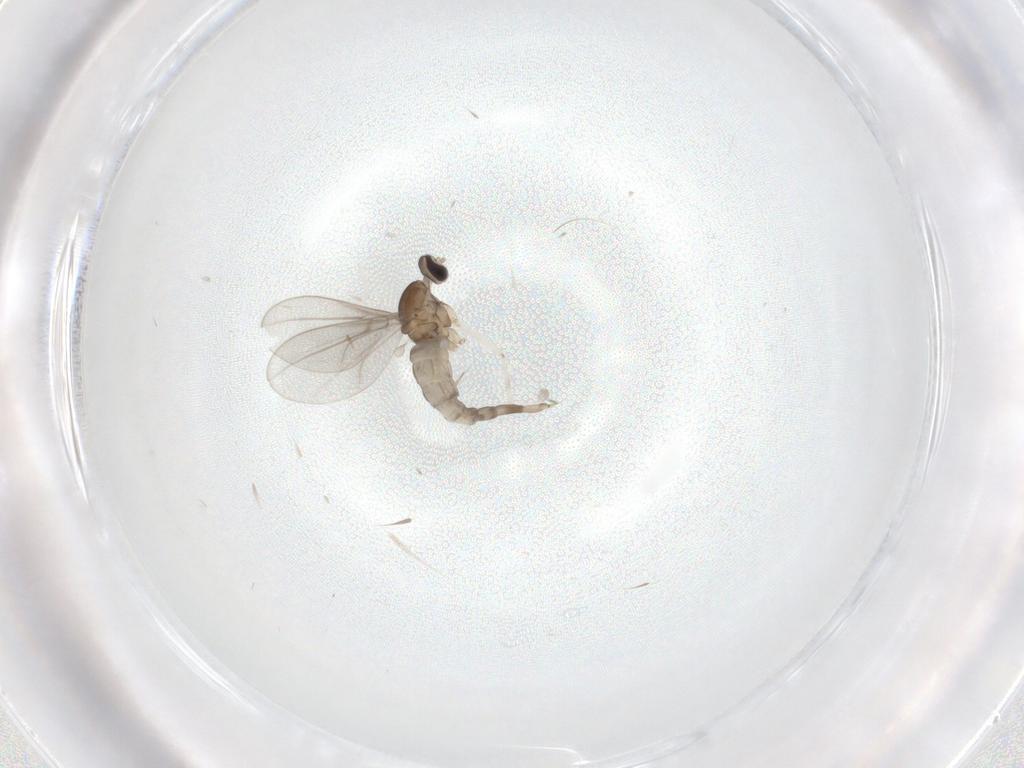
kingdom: Animalia
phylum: Arthropoda
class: Insecta
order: Diptera
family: Cecidomyiidae
